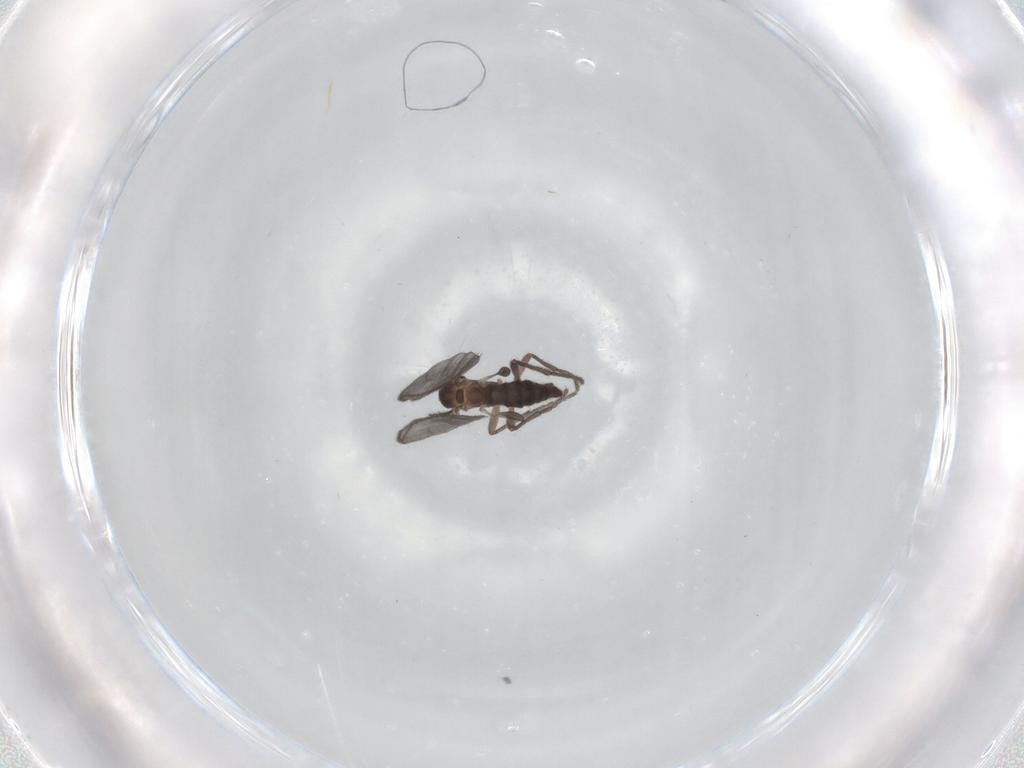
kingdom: Animalia
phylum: Arthropoda
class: Insecta
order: Diptera
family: Sciaridae
